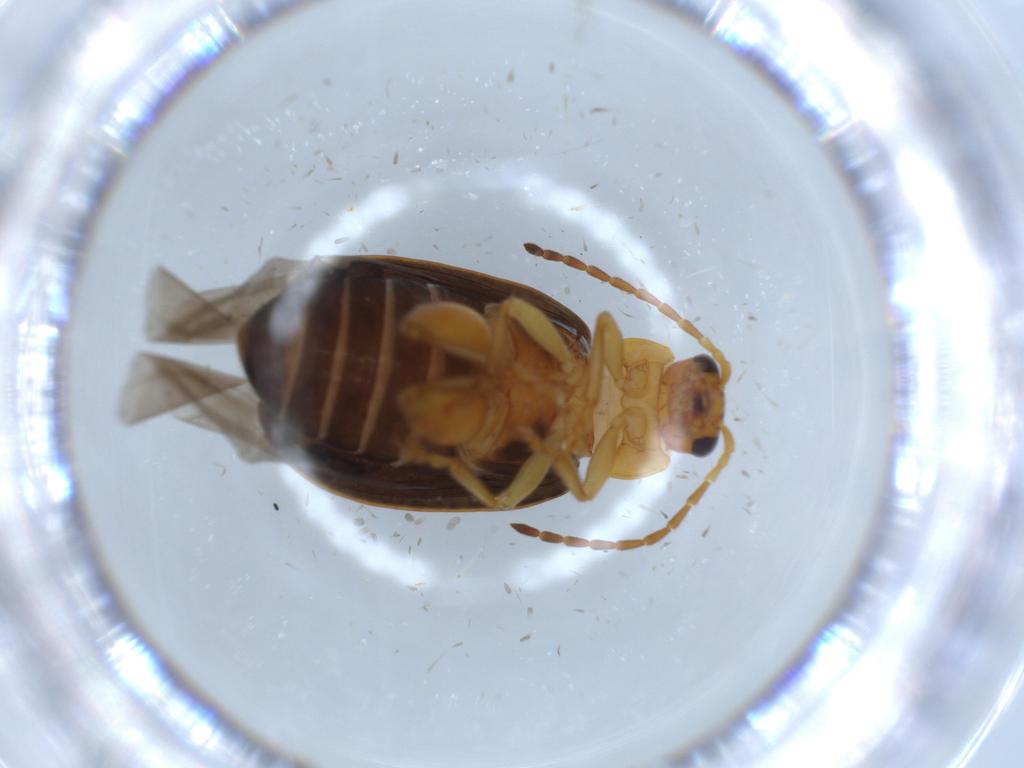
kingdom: Animalia
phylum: Arthropoda
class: Insecta
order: Coleoptera
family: Chrysomelidae
